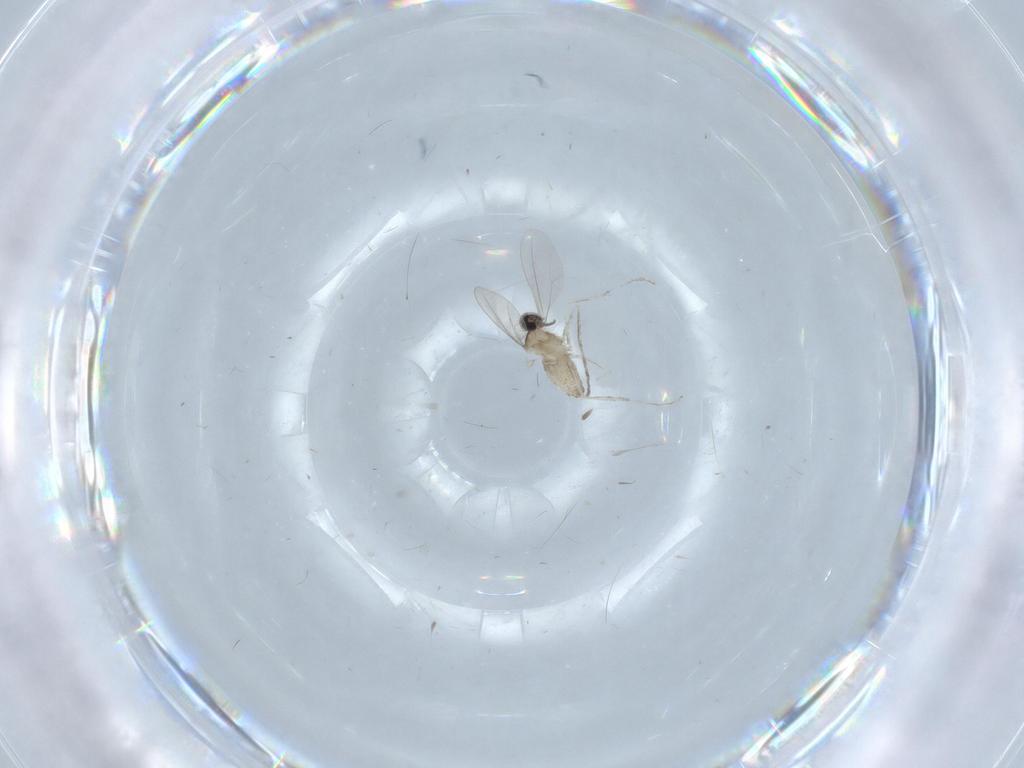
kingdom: Animalia
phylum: Arthropoda
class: Insecta
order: Diptera
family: Cecidomyiidae
